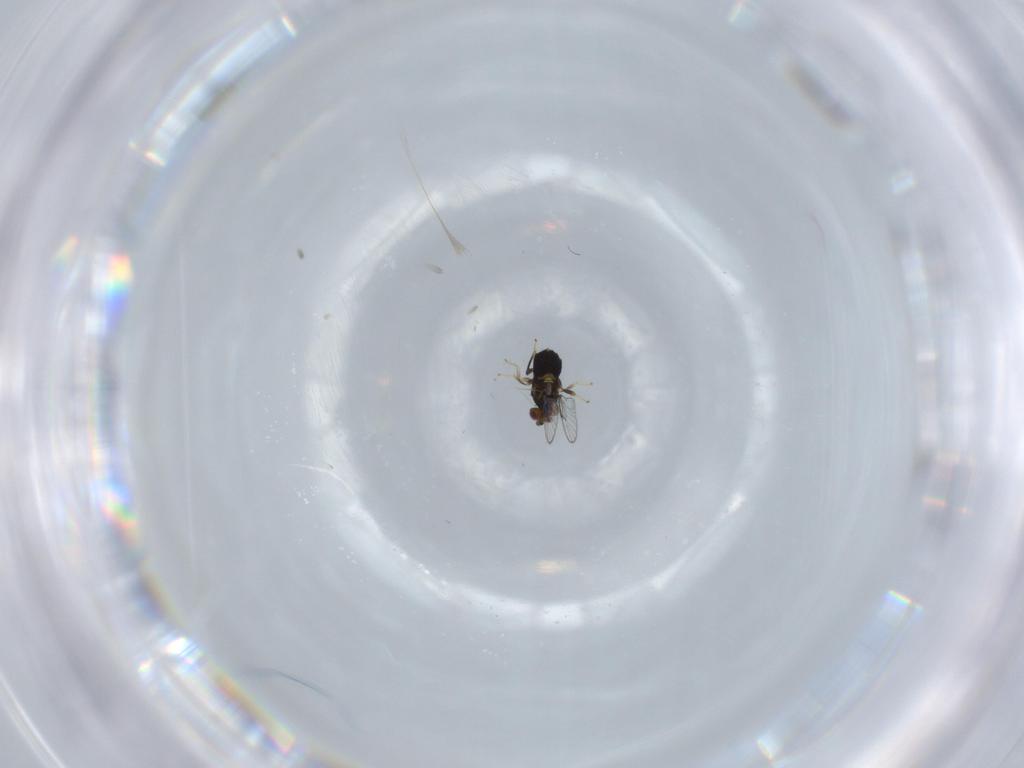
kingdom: Animalia
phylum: Arthropoda
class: Insecta
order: Hymenoptera
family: Trichogrammatidae
